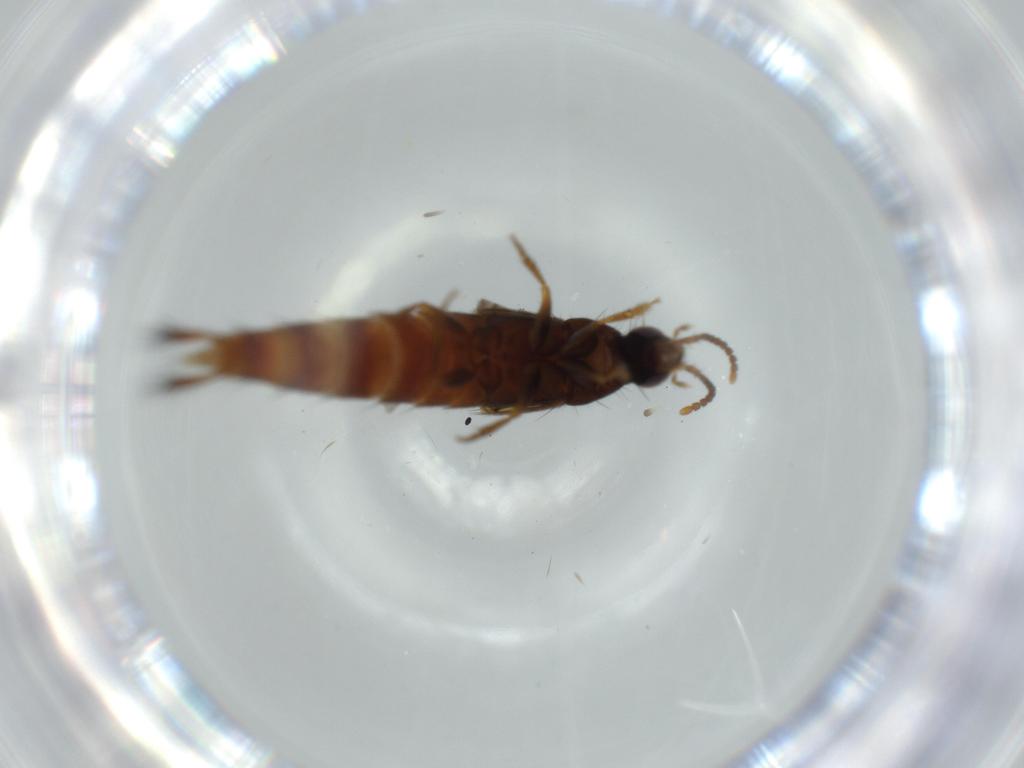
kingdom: Animalia
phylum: Arthropoda
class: Insecta
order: Coleoptera
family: Staphylinidae
